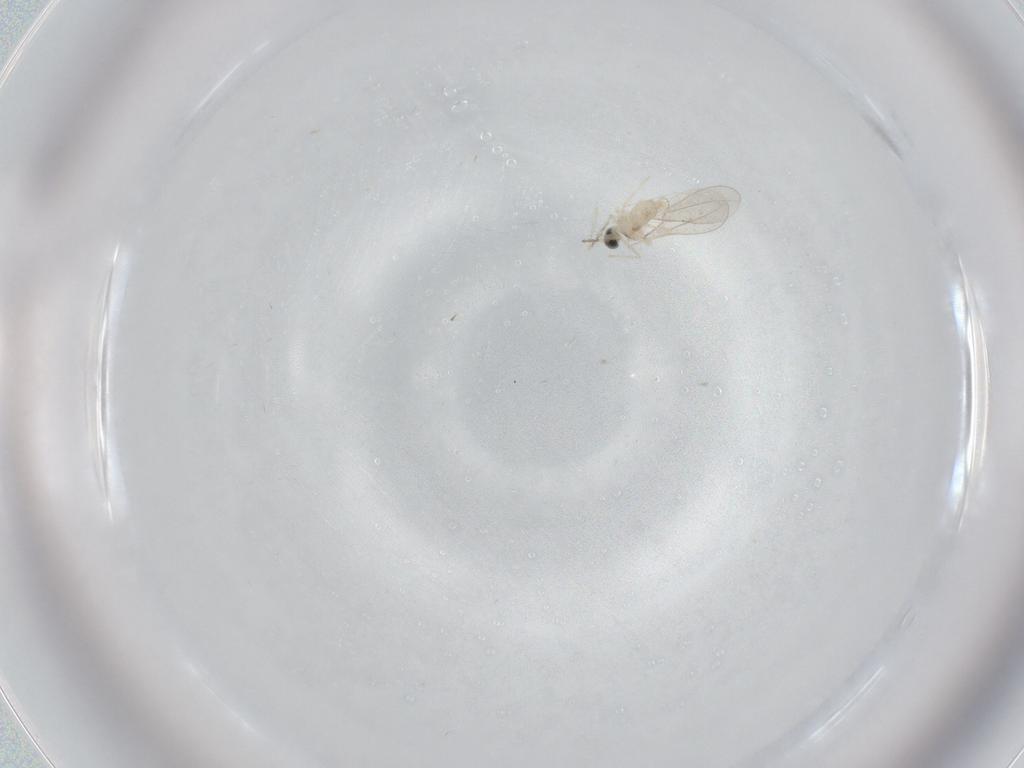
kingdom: Animalia
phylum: Arthropoda
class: Insecta
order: Diptera
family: Cecidomyiidae
